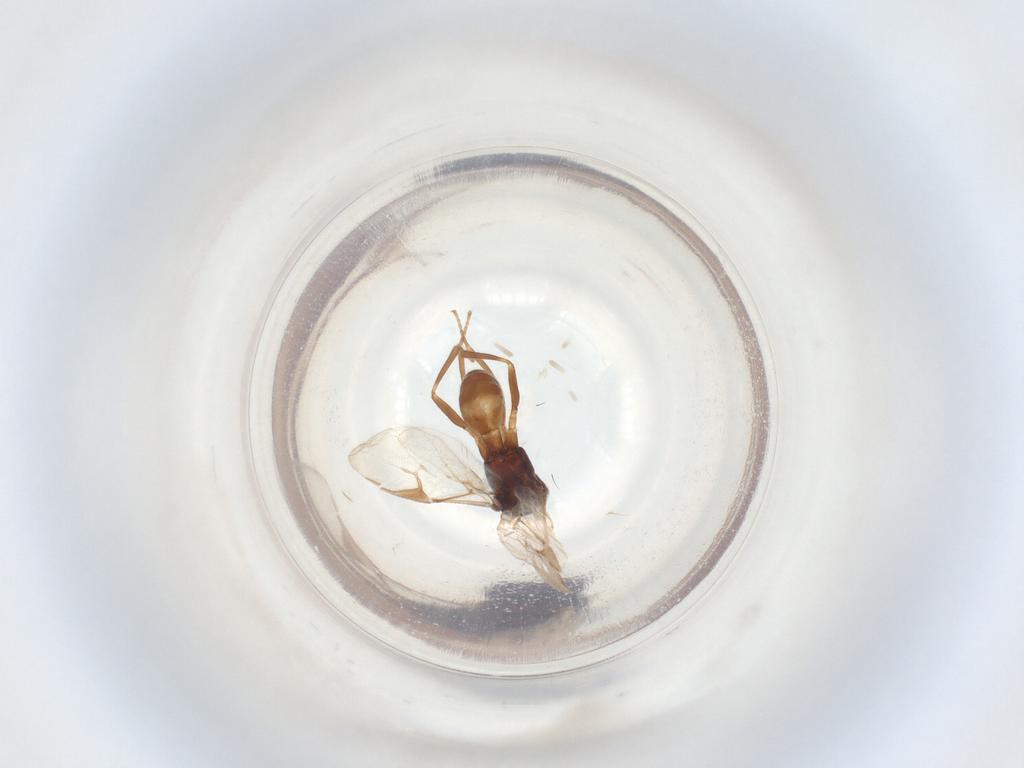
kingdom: Animalia
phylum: Arthropoda
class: Insecta
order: Hymenoptera
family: Braconidae
